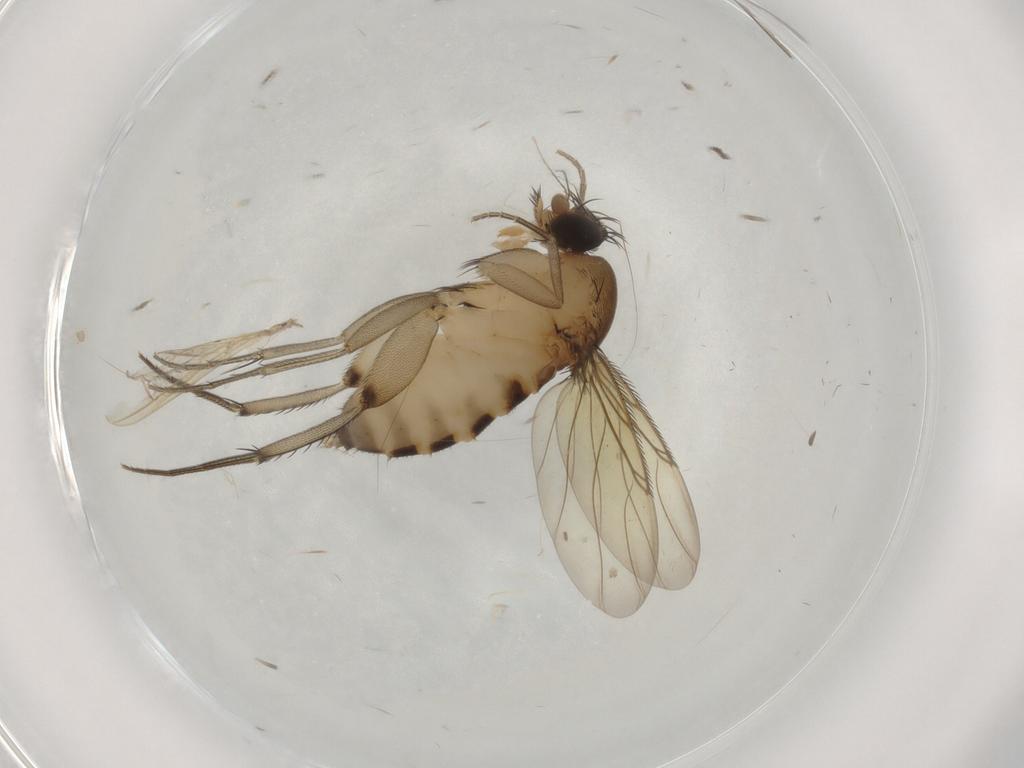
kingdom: Animalia
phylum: Arthropoda
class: Insecta
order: Diptera
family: Phoridae
